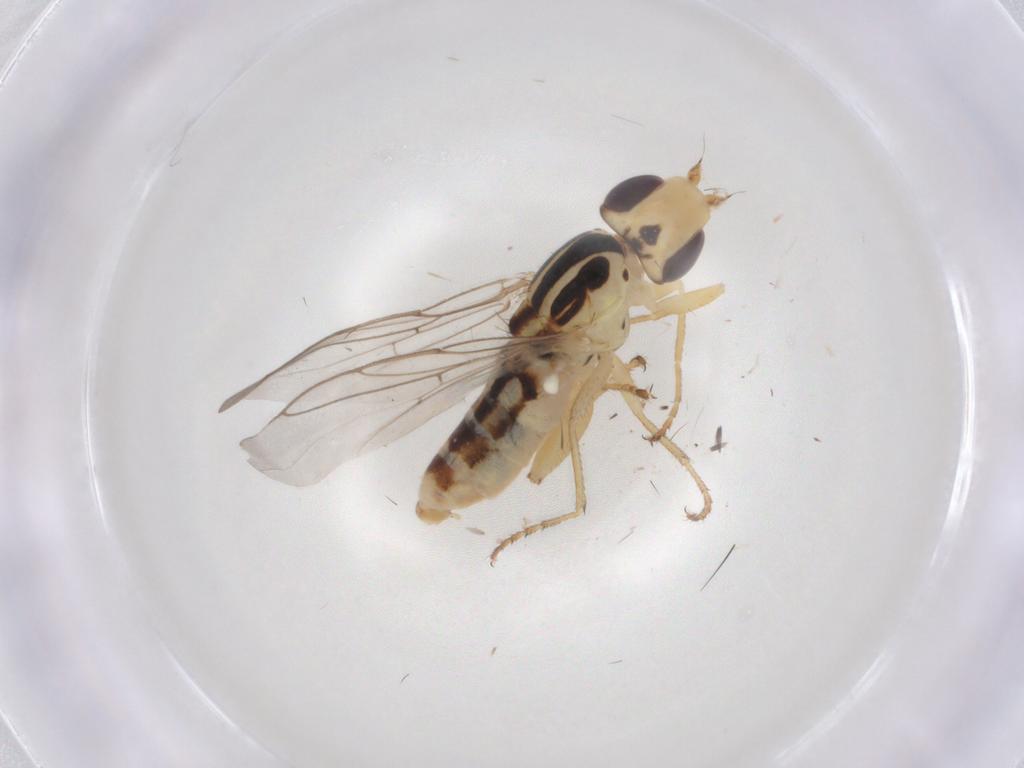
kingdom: Animalia
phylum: Arthropoda
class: Insecta
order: Diptera
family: Chloropidae
